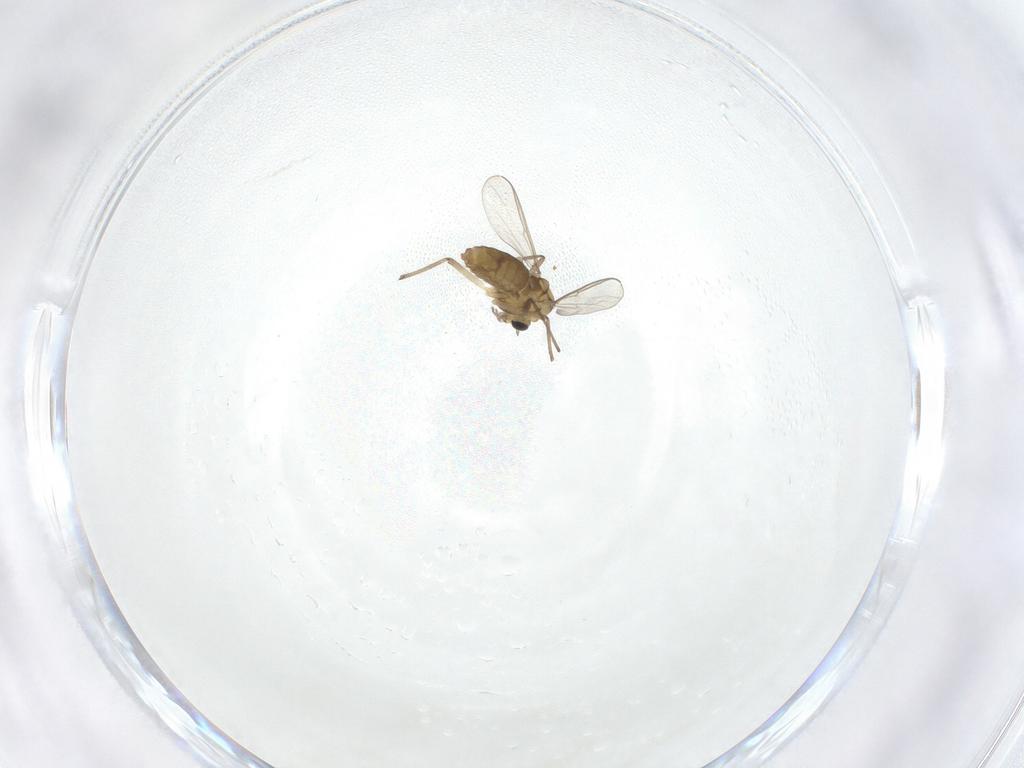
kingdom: Animalia
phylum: Arthropoda
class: Insecta
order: Diptera
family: Chironomidae
